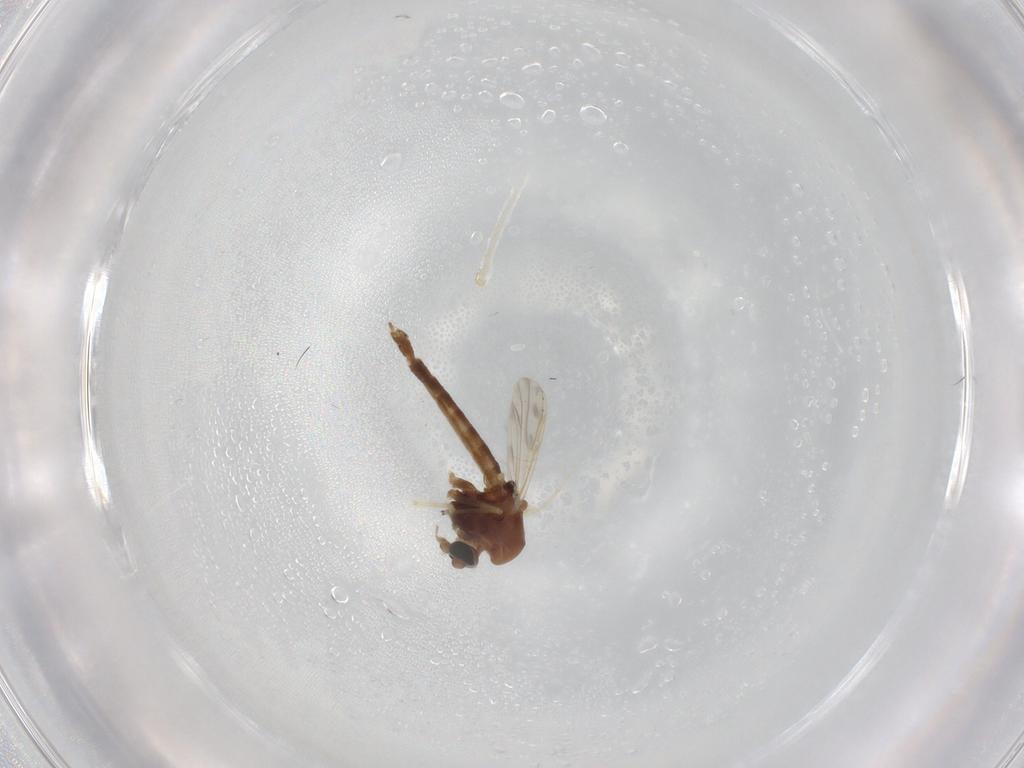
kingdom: Animalia
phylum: Arthropoda
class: Insecta
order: Diptera
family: Chironomidae
